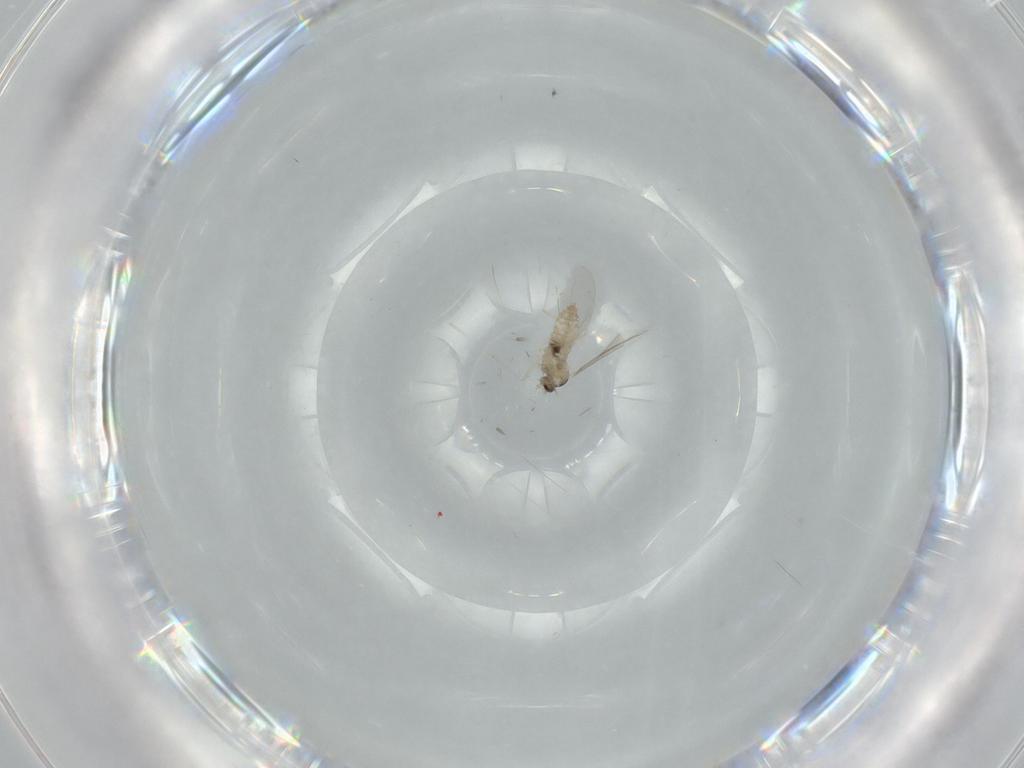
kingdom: Animalia
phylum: Arthropoda
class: Insecta
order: Diptera
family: Cecidomyiidae
